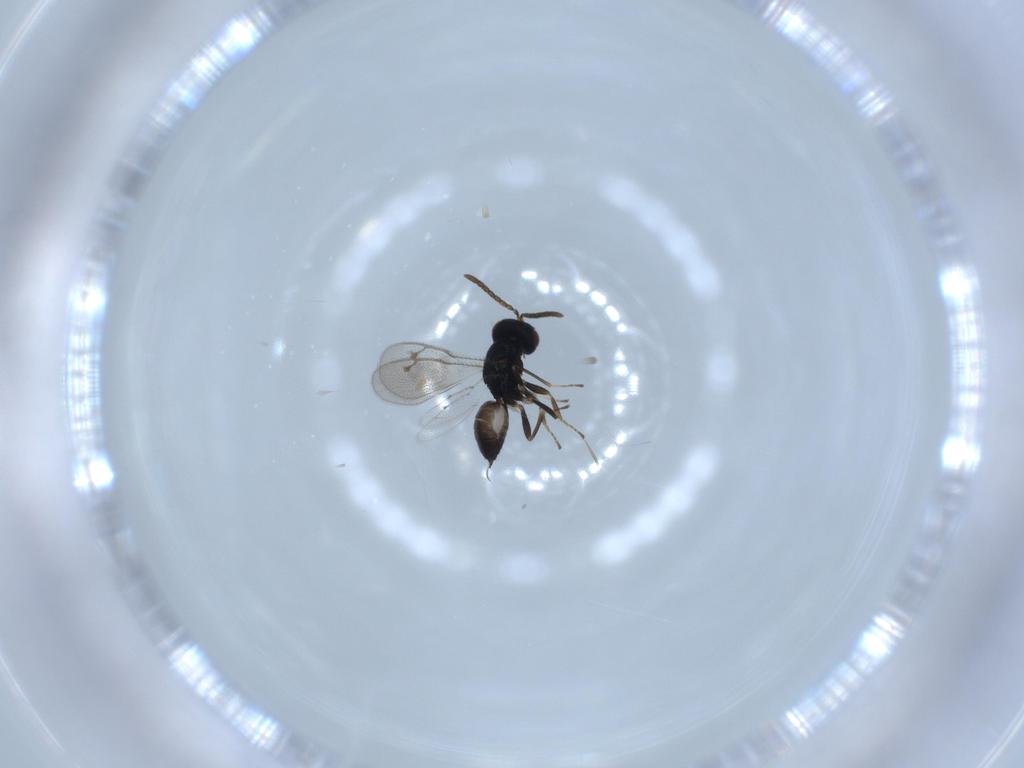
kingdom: Animalia
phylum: Arthropoda
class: Insecta
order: Hymenoptera
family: Pteromalidae
